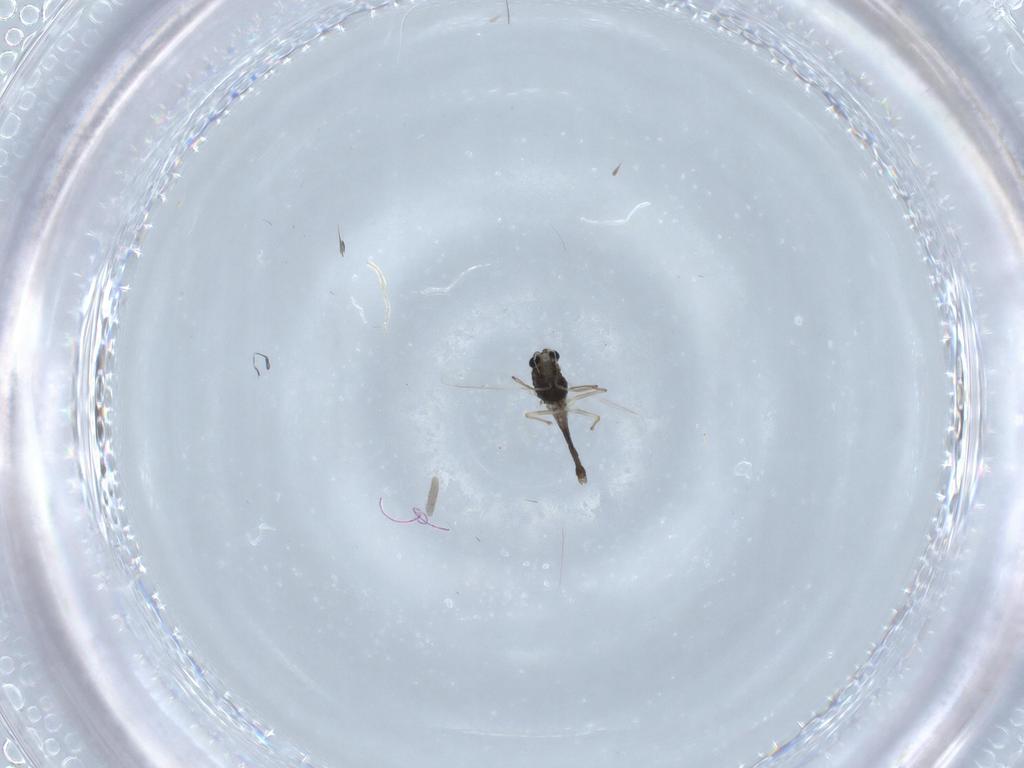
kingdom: Animalia
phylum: Arthropoda
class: Insecta
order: Diptera
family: Chironomidae
